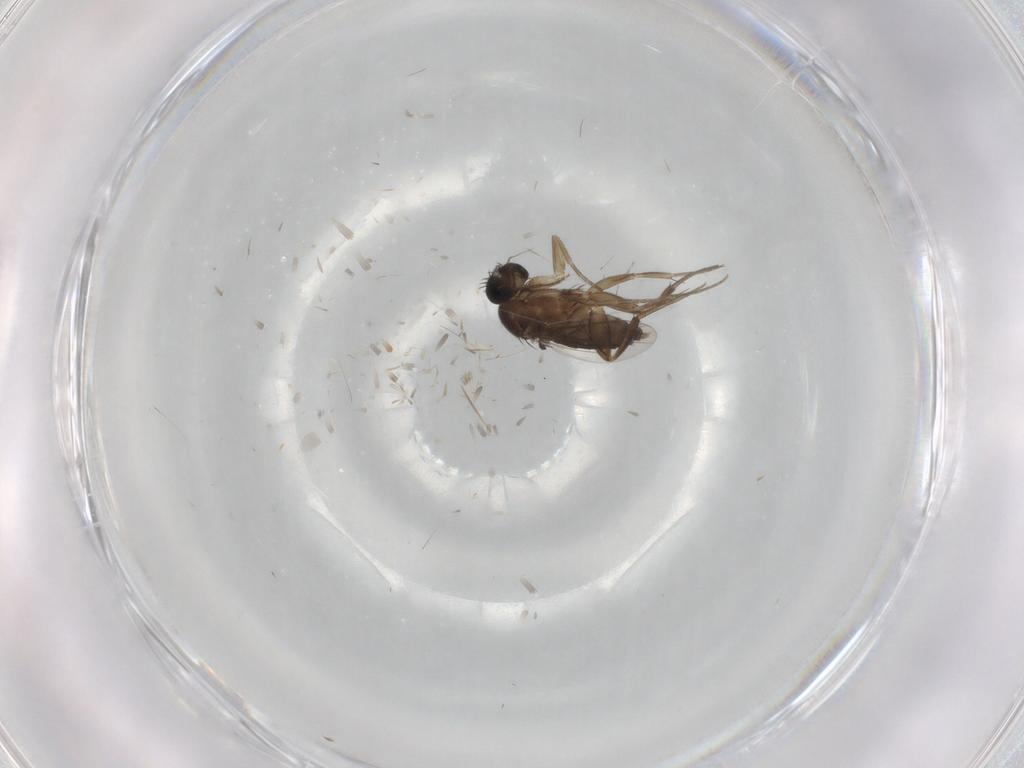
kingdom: Animalia
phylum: Arthropoda
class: Insecta
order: Diptera
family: Phoridae
